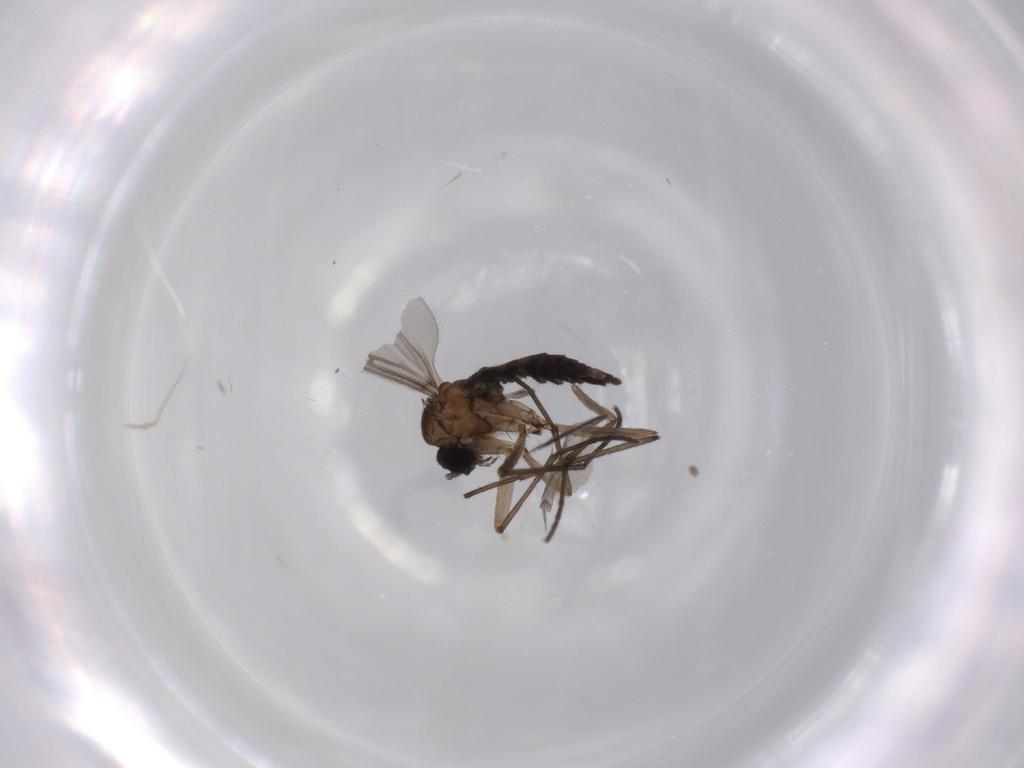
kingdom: Animalia
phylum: Arthropoda
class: Insecta
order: Diptera
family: Sciaridae
